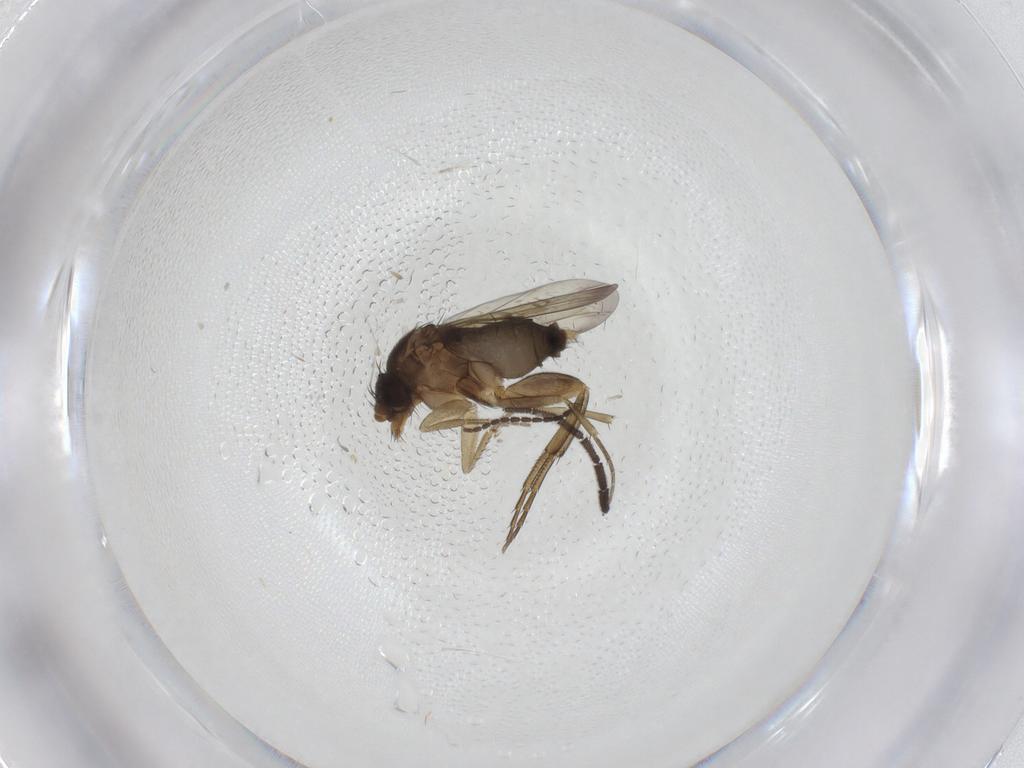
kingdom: Animalia
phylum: Arthropoda
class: Insecta
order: Diptera
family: Phoridae
